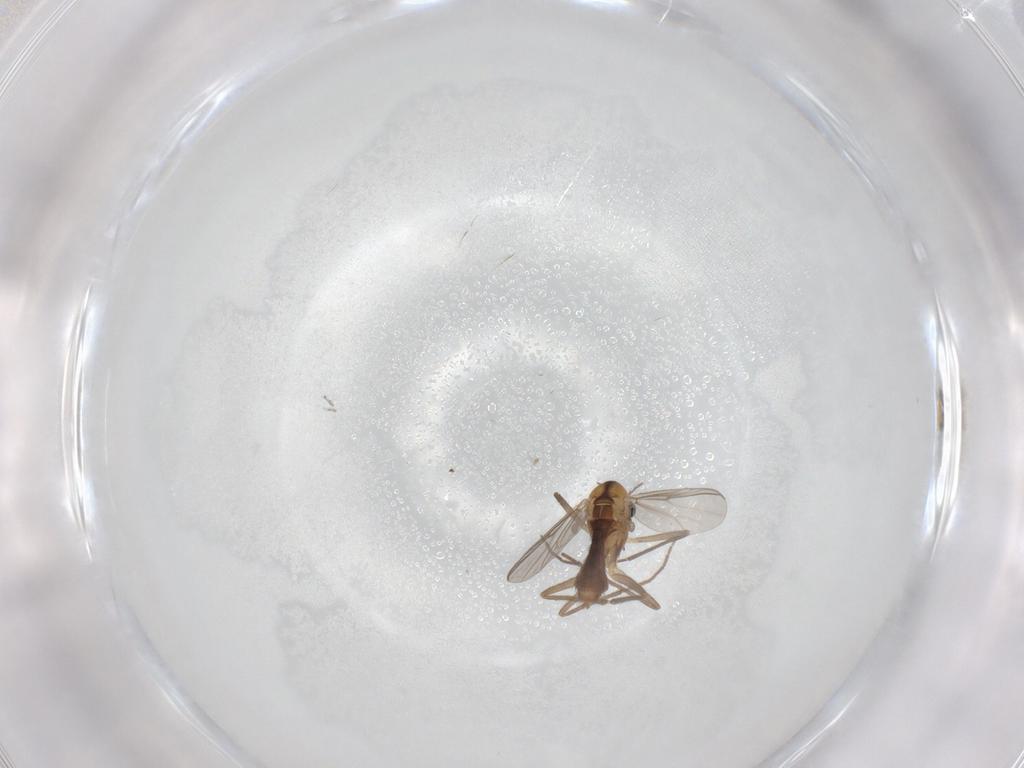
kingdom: Animalia
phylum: Arthropoda
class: Insecta
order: Diptera
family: Chironomidae
